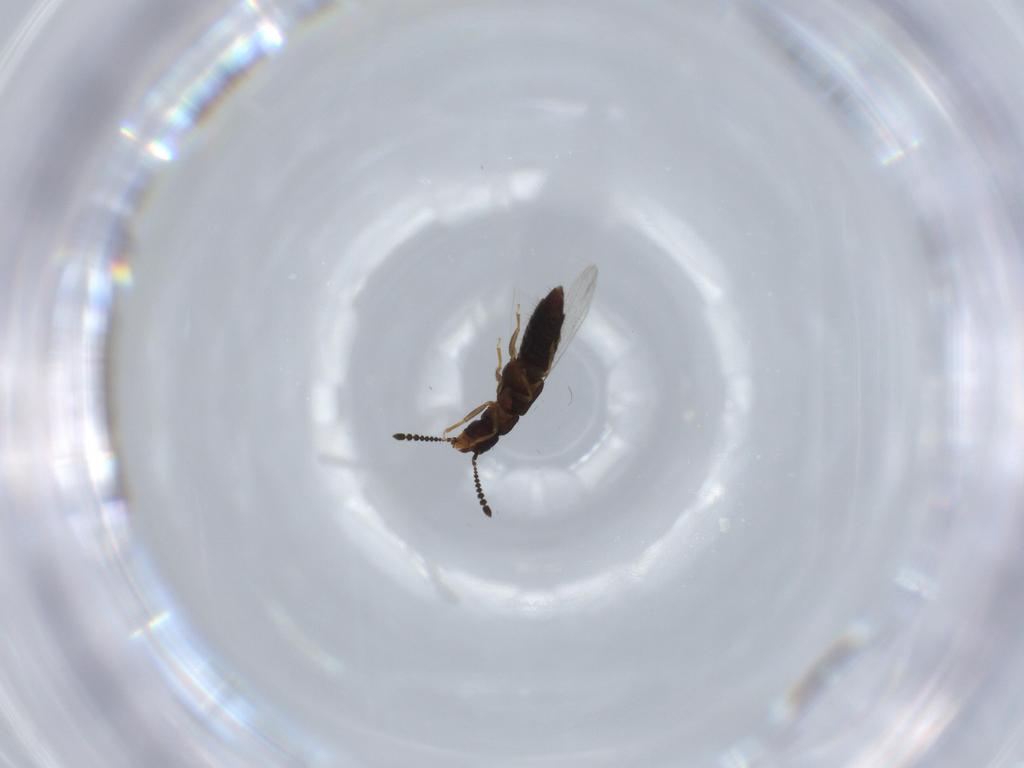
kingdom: Animalia
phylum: Arthropoda
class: Insecta
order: Coleoptera
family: Staphylinidae
